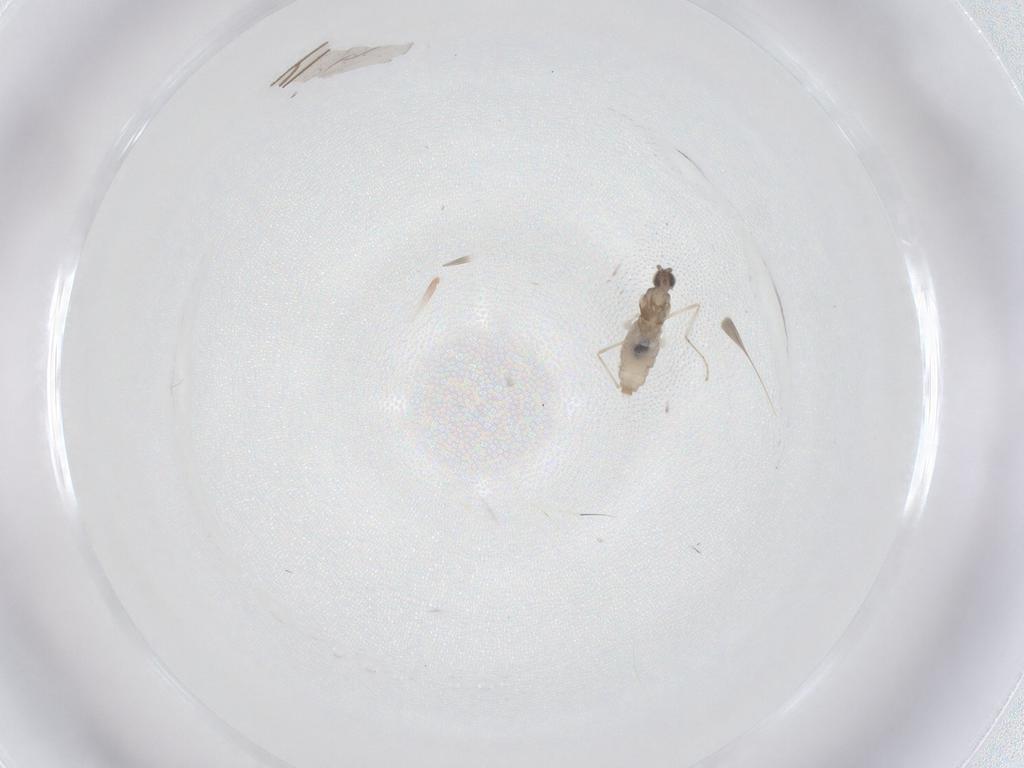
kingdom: Animalia
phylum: Arthropoda
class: Insecta
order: Diptera
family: Cecidomyiidae
